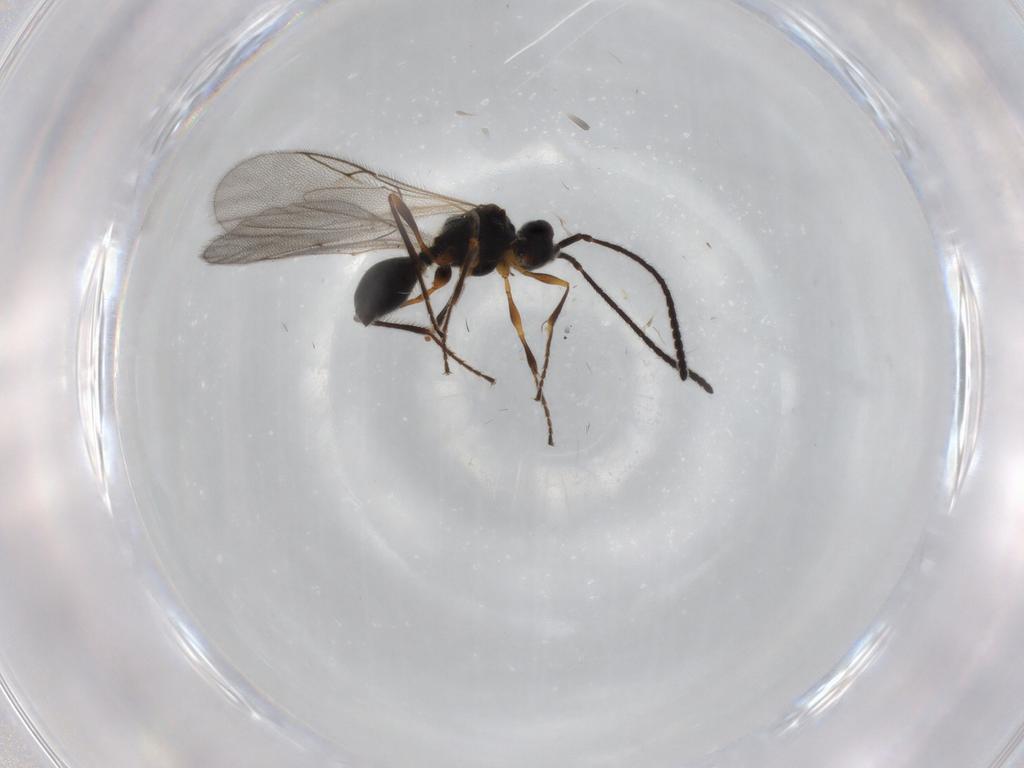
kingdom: Animalia
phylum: Arthropoda
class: Insecta
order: Hymenoptera
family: Diapriidae
